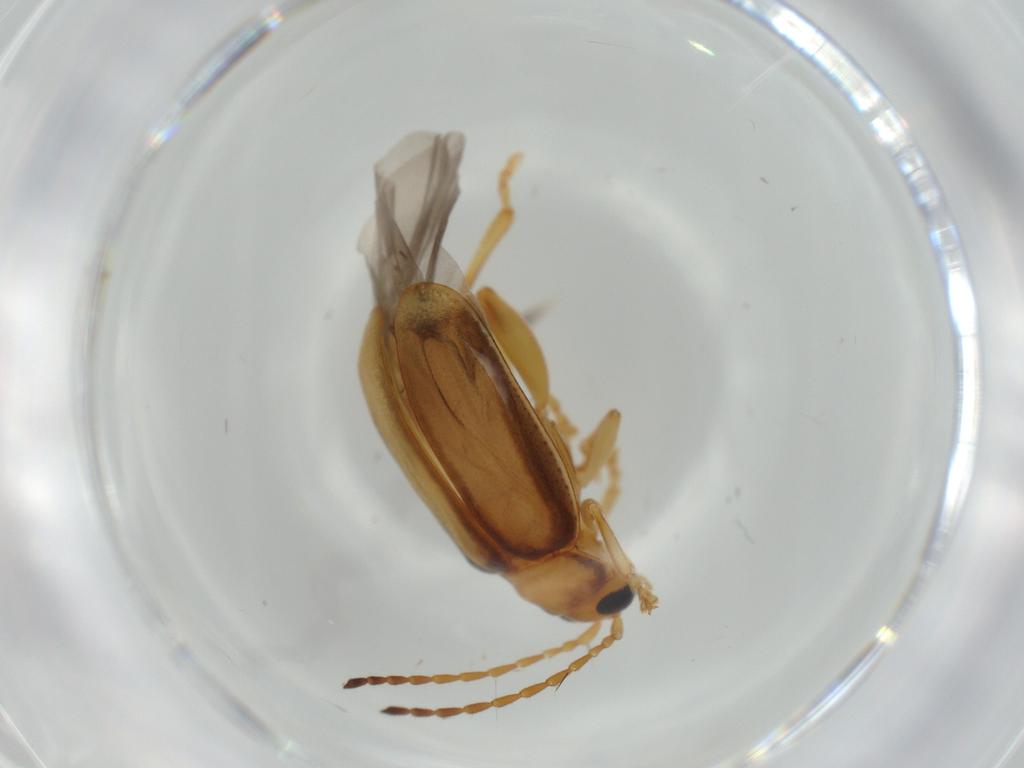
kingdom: Animalia
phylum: Arthropoda
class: Insecta
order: Coleoptera
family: Chrysomelidae
